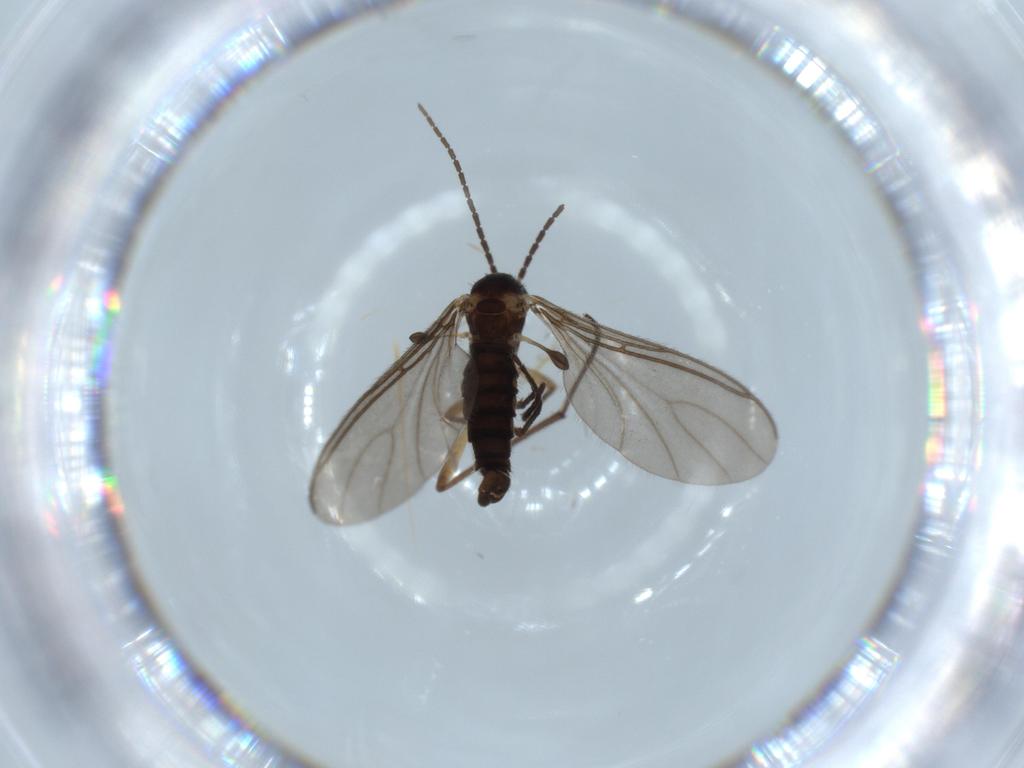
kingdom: Animalia
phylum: Arthropoda
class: Insecta
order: Diptera
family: Sciaridae
